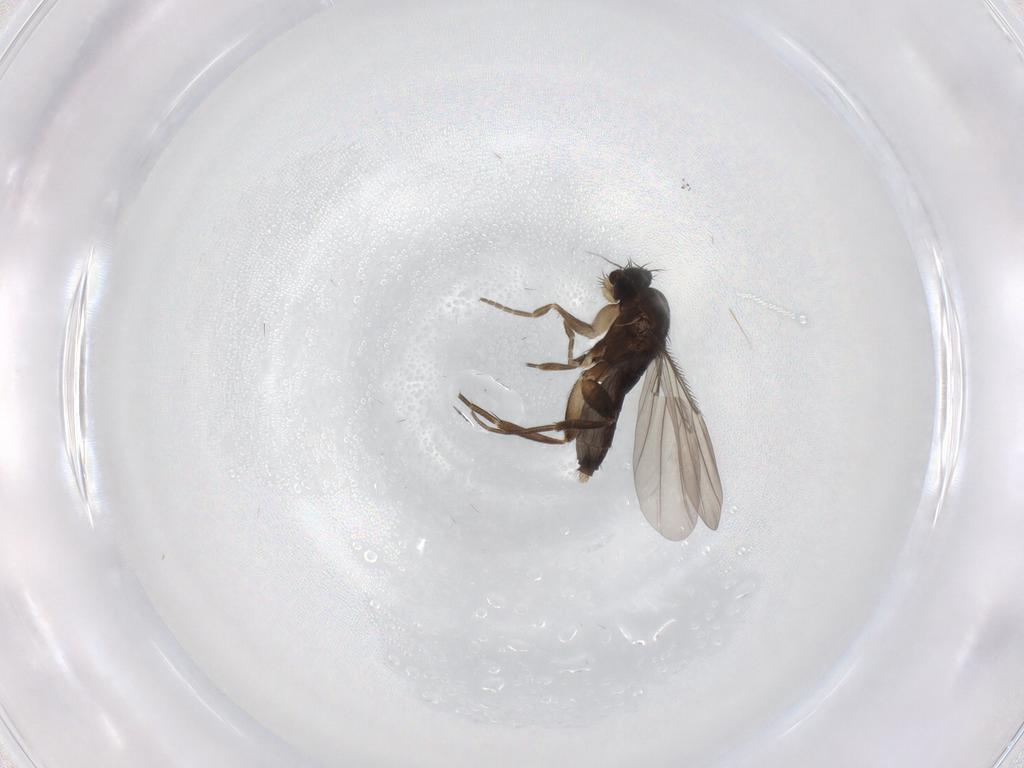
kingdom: Animalia
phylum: Arthropoda
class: Insecta
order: Diptera
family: Phoridae
